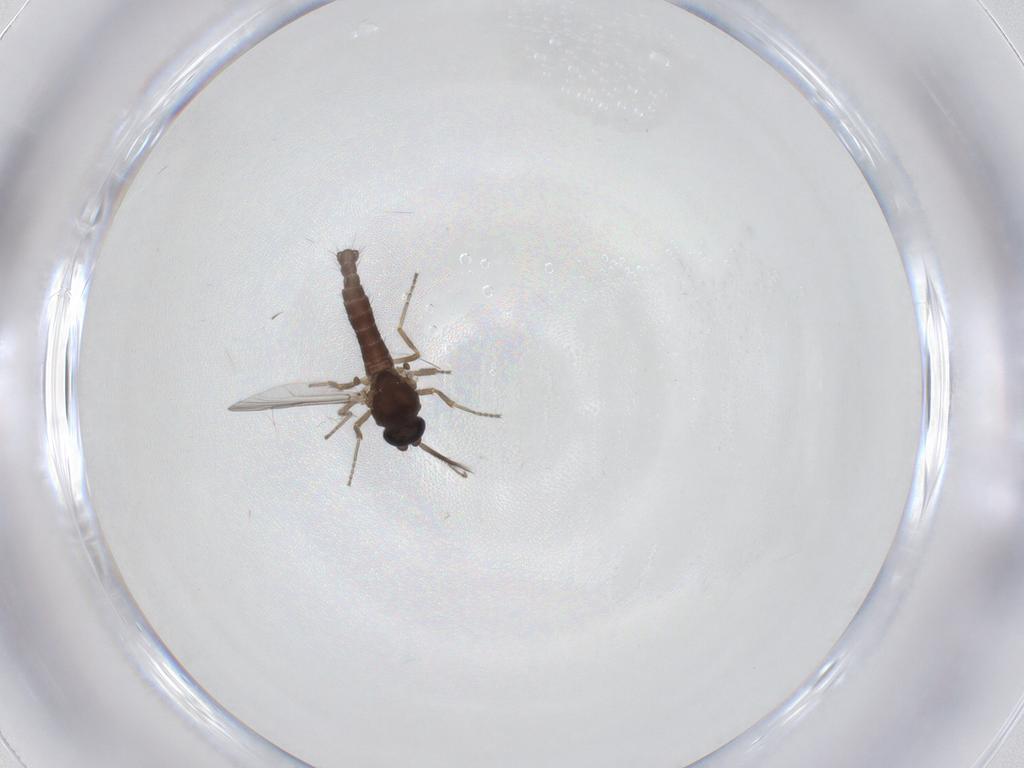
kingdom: Animalia
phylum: Arthropoda
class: Insecta
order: Diptera
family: Ceratopogonidae
